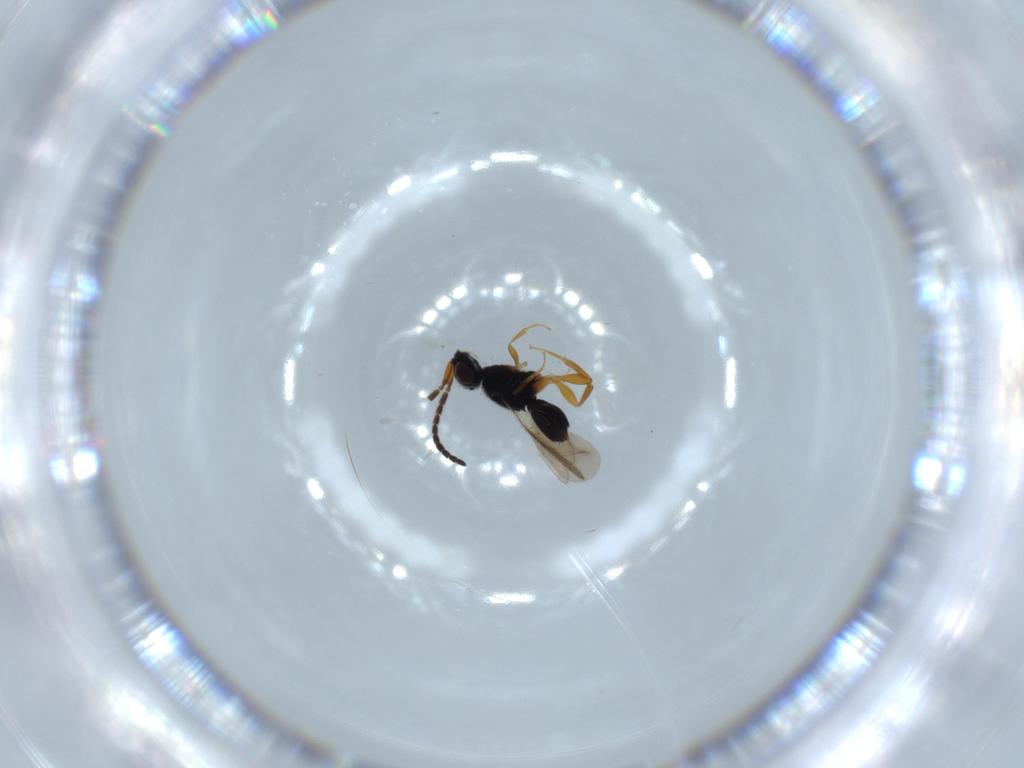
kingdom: Animalia
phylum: Arthropoda
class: Insecta
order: Hymenoptera
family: Ceraphronidae
